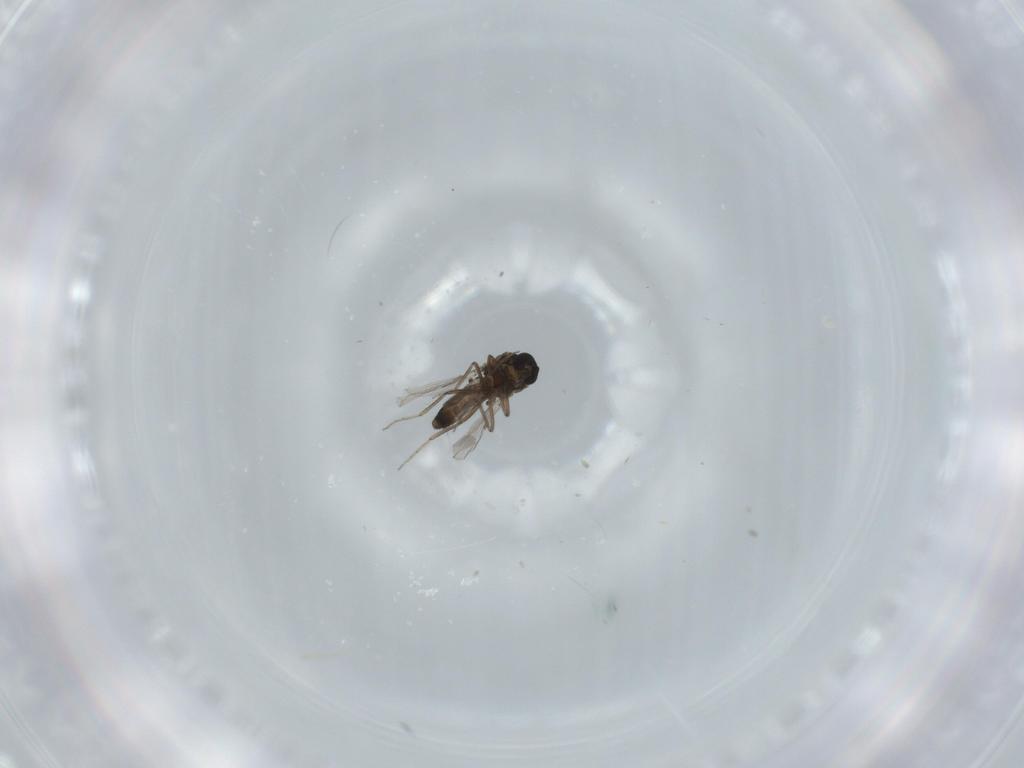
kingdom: Animalia
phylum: Arthropoda
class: Insecta
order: Diptera
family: Ceratopogonidae
